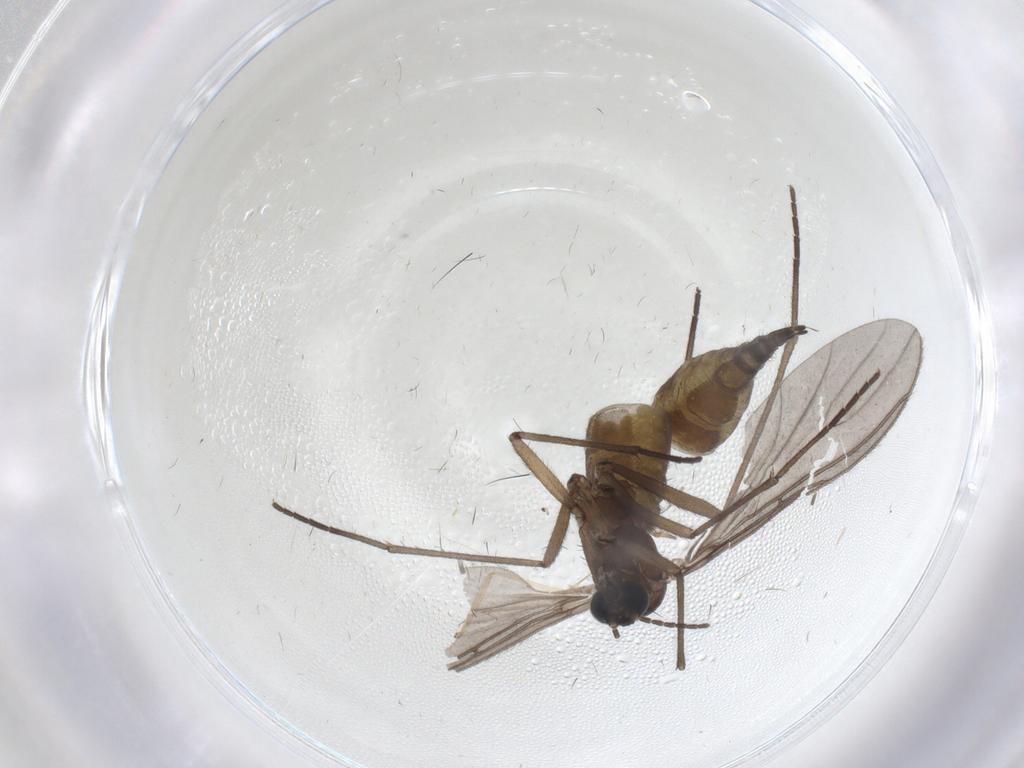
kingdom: Animalia
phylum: Arthropoda
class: Insecta
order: Diptera
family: Sciaridae
